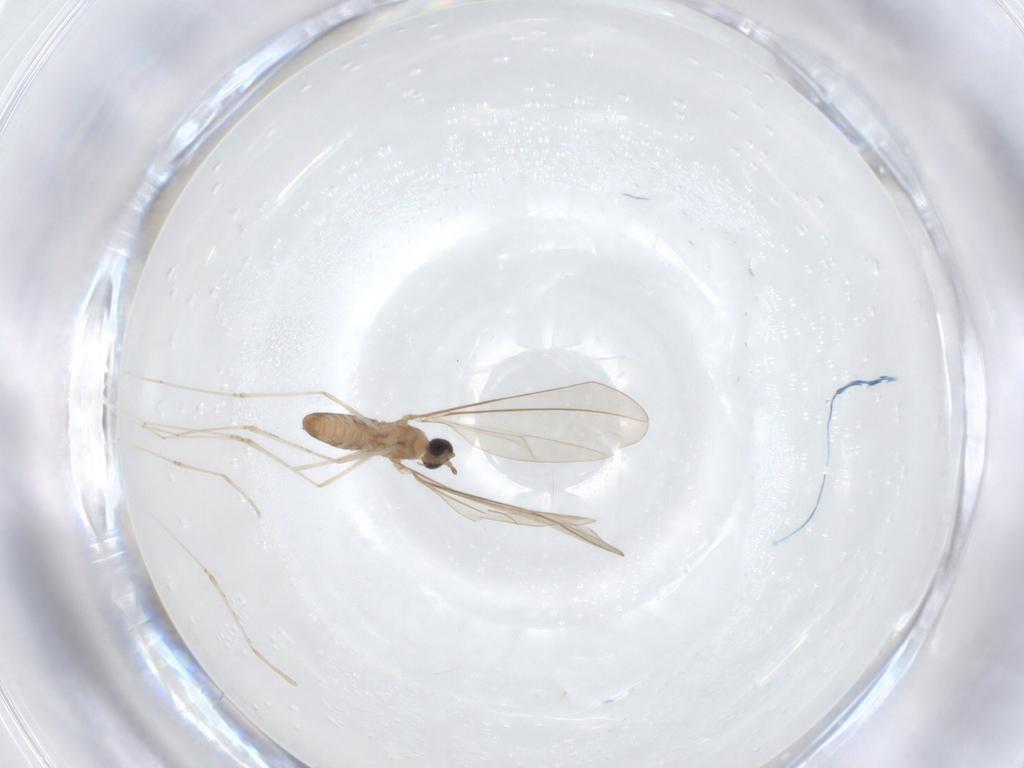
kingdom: Animalia
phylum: Arthropoda
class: Insecta
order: Diptera
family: Cecidomyiidae
